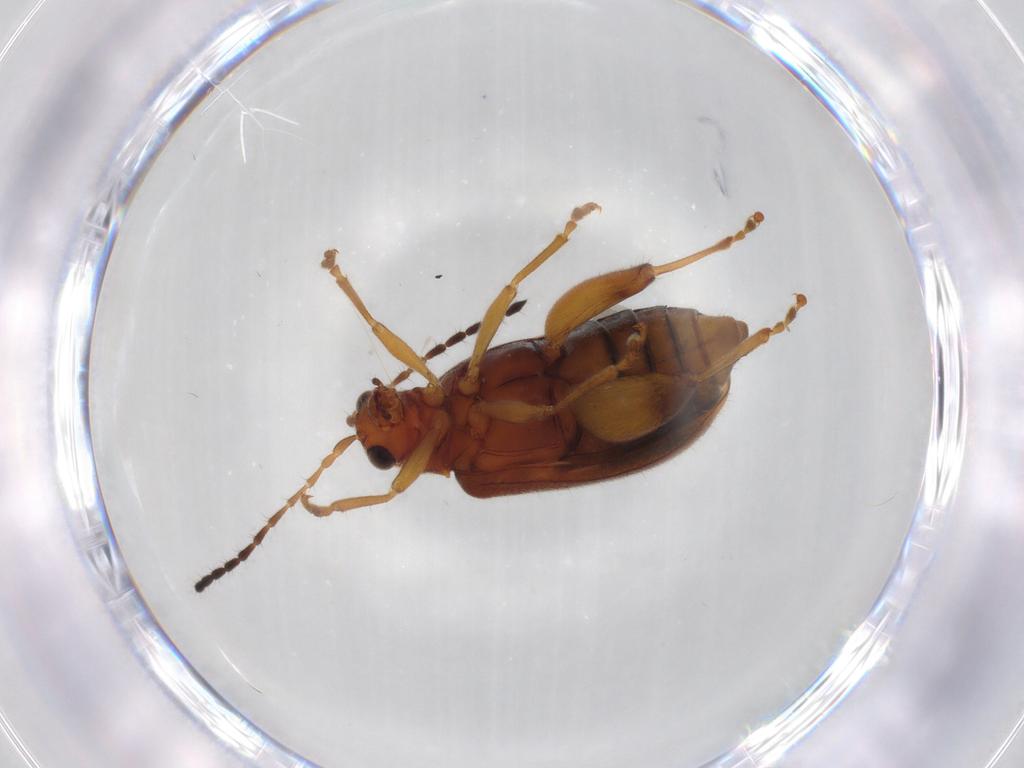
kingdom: Animalia
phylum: Arthropoda
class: Insecta
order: Coleoptera
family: Chrysomelidae
